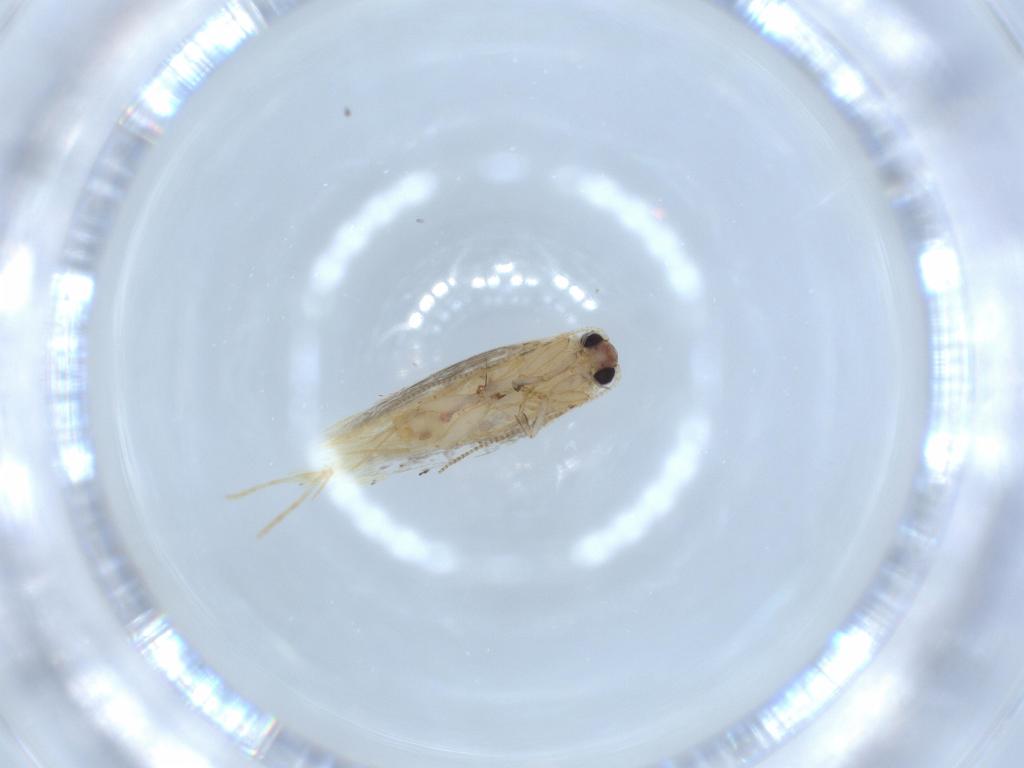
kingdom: Animalia
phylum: Arthropoda
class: Insecta
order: Lepidoptera
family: Tineidae
